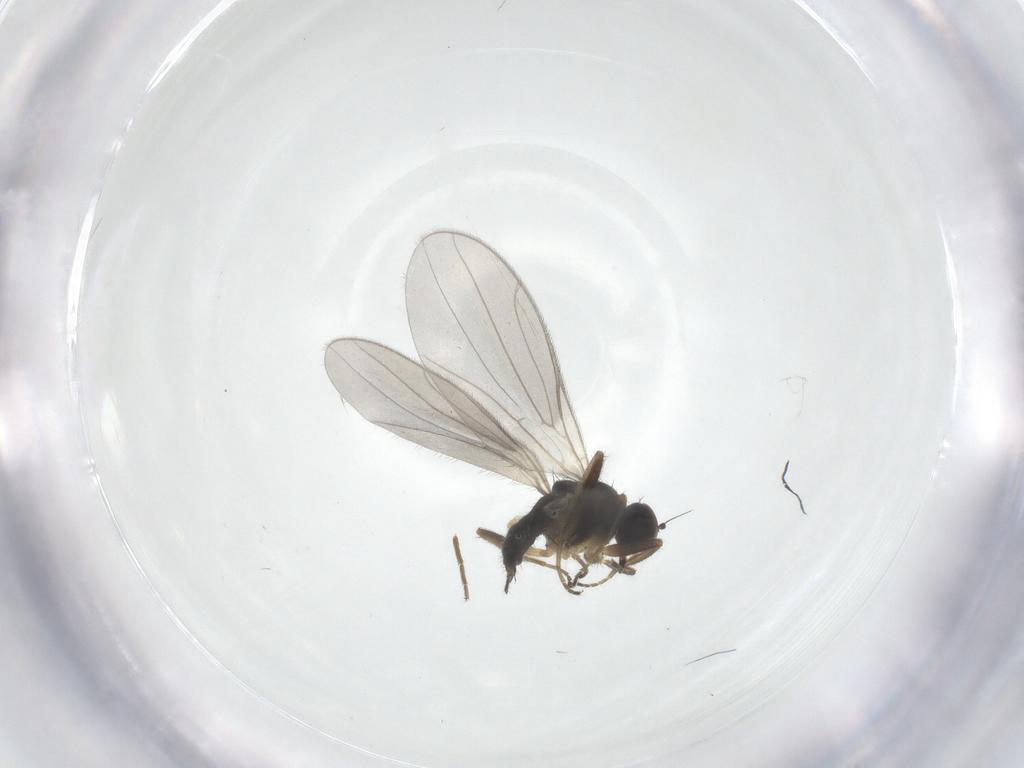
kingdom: Animalia
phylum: Arthropoda
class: Insecta
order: Diptera
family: Hybotidae
